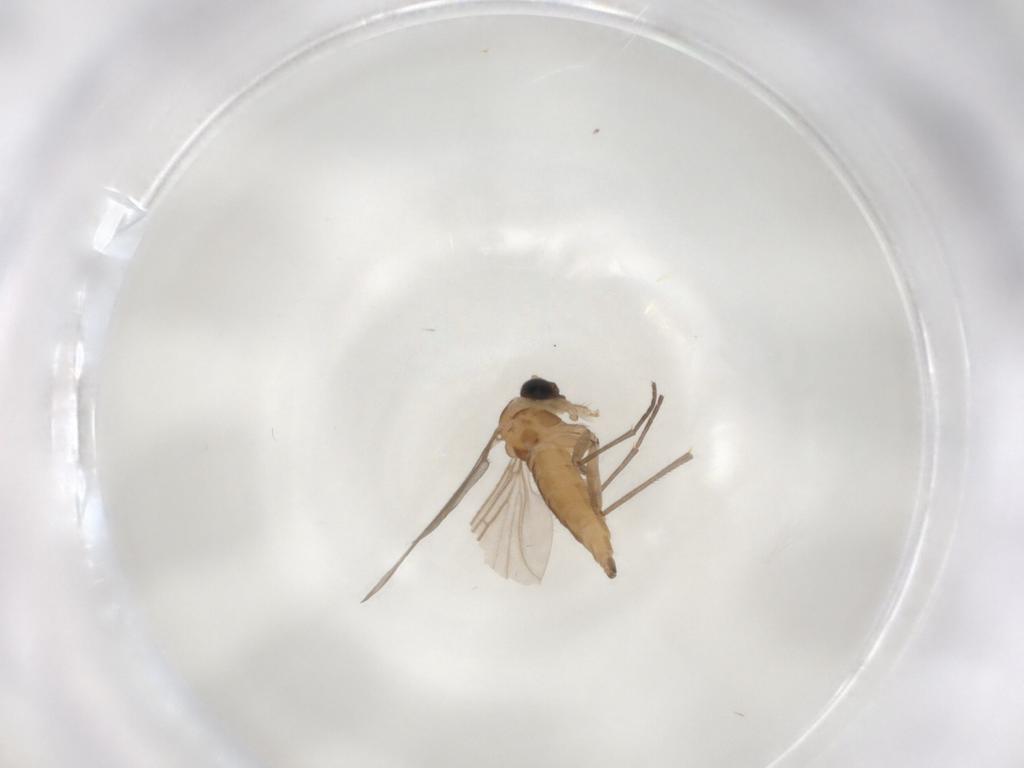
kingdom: Animalia
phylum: Arthropoda
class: Insecta
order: Diptera
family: Sciaridae
